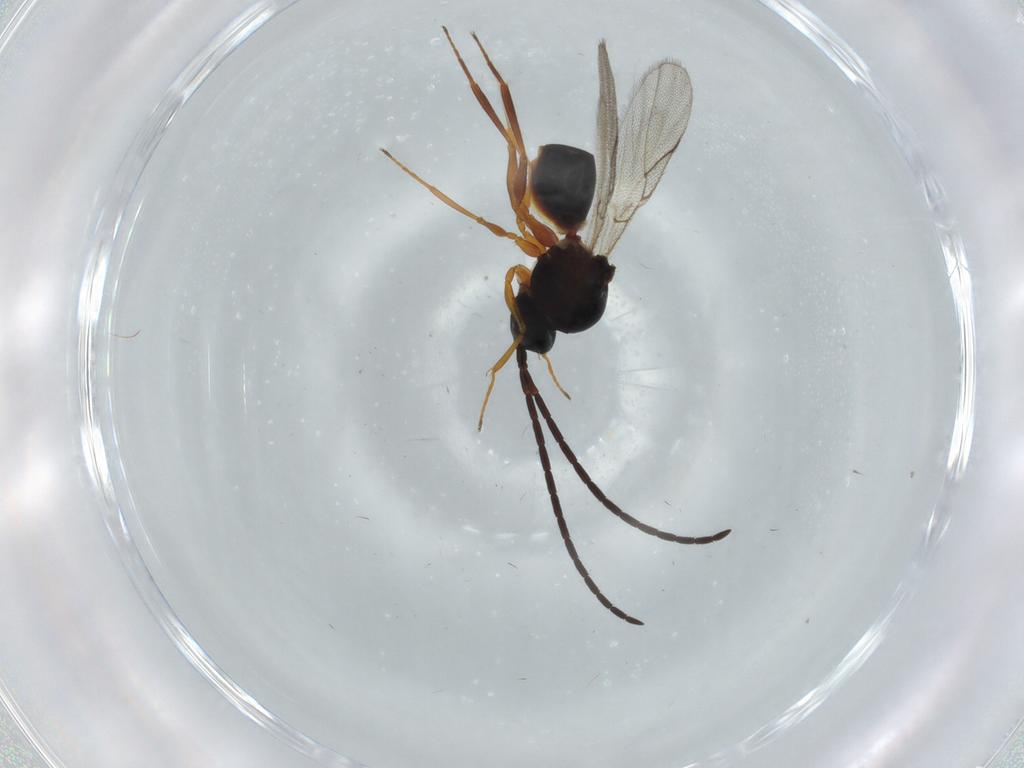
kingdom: Animalia
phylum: Arthropoda
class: Insecta
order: Hymenoptera
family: Figitidae
